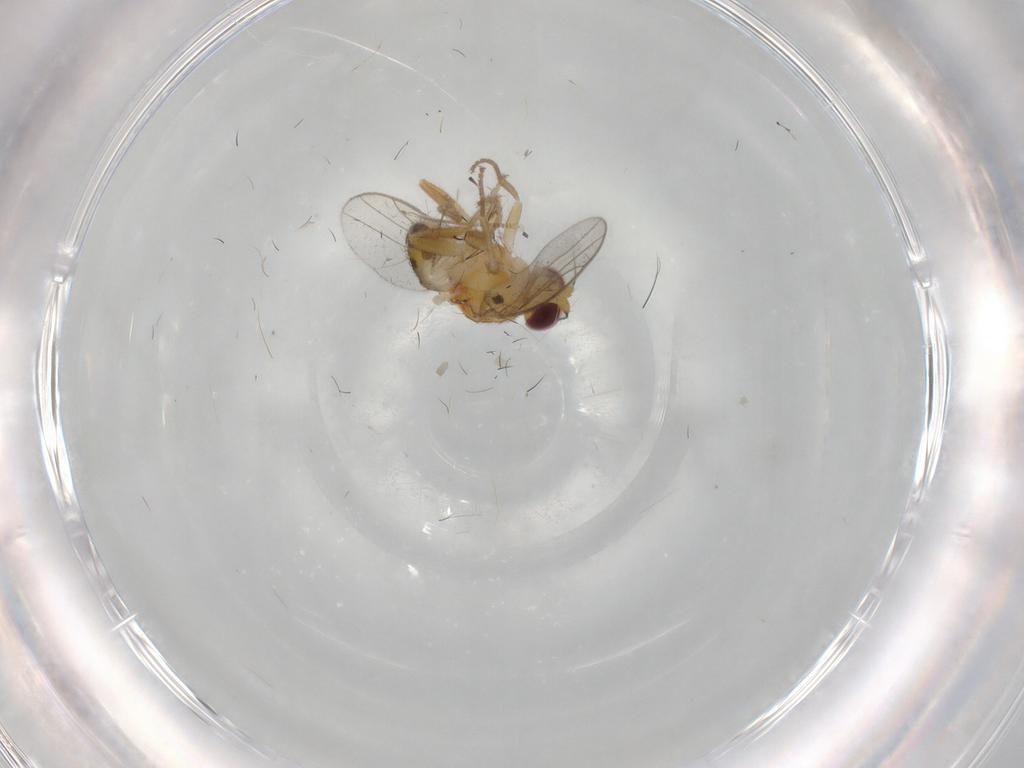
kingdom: Animalia
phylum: Arthropoda
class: Insecta
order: Diptera
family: Chloropidae
